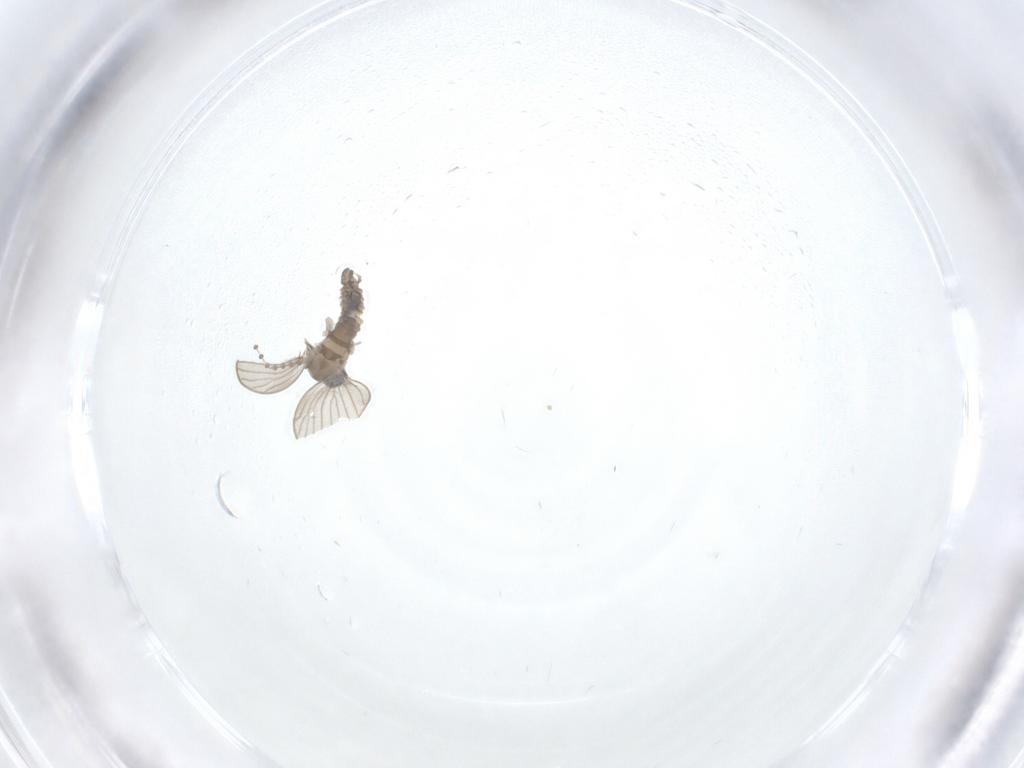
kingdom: Animalia
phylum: Arthropoda
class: Insecta
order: Diptera
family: Psychodidae
